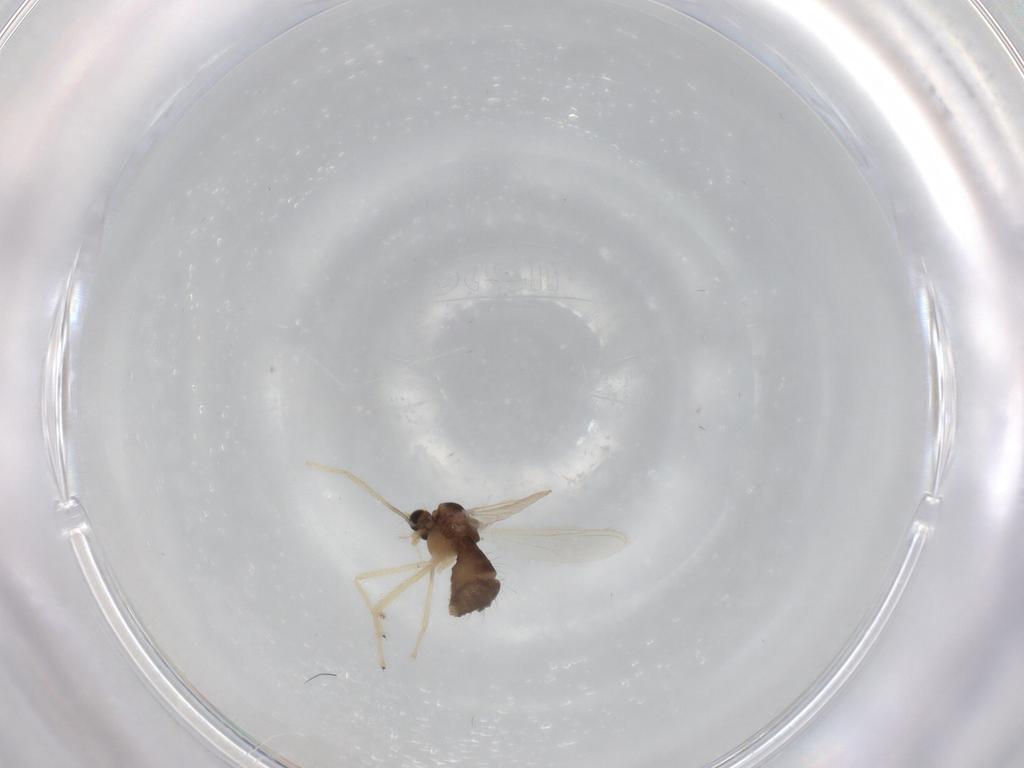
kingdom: Animalia
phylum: Arthropoda
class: Insecta
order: Diptera
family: Chironomidae
